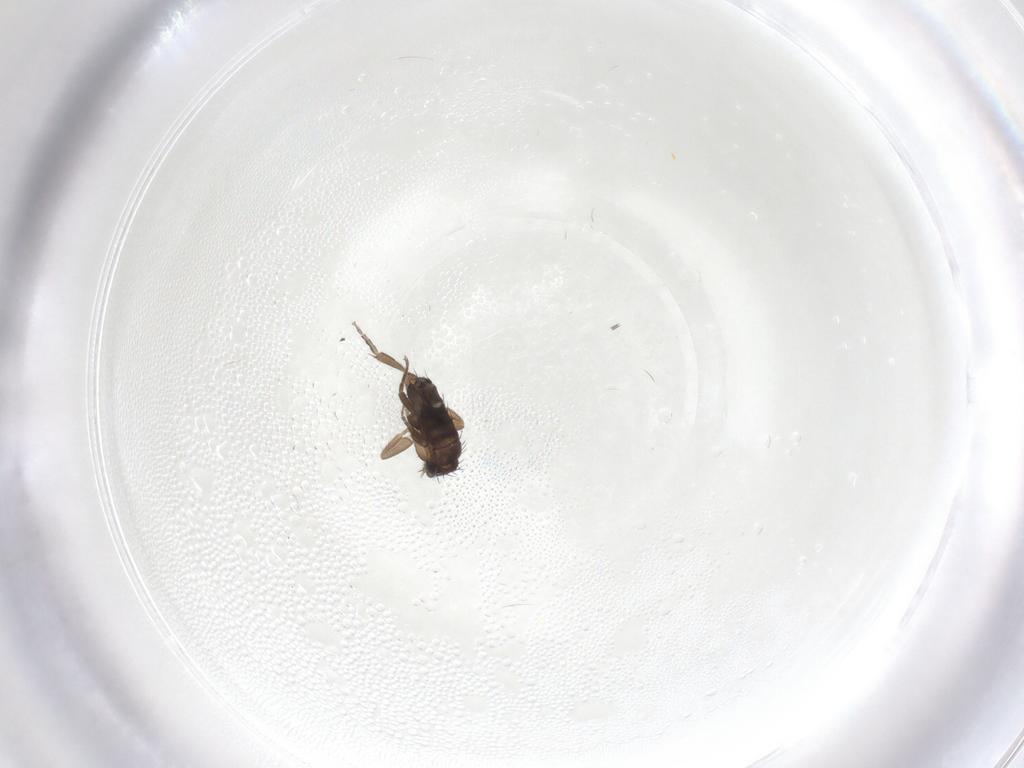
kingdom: Animalia
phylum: Arthropoda
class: Insecta
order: Diptera
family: Phoridae
